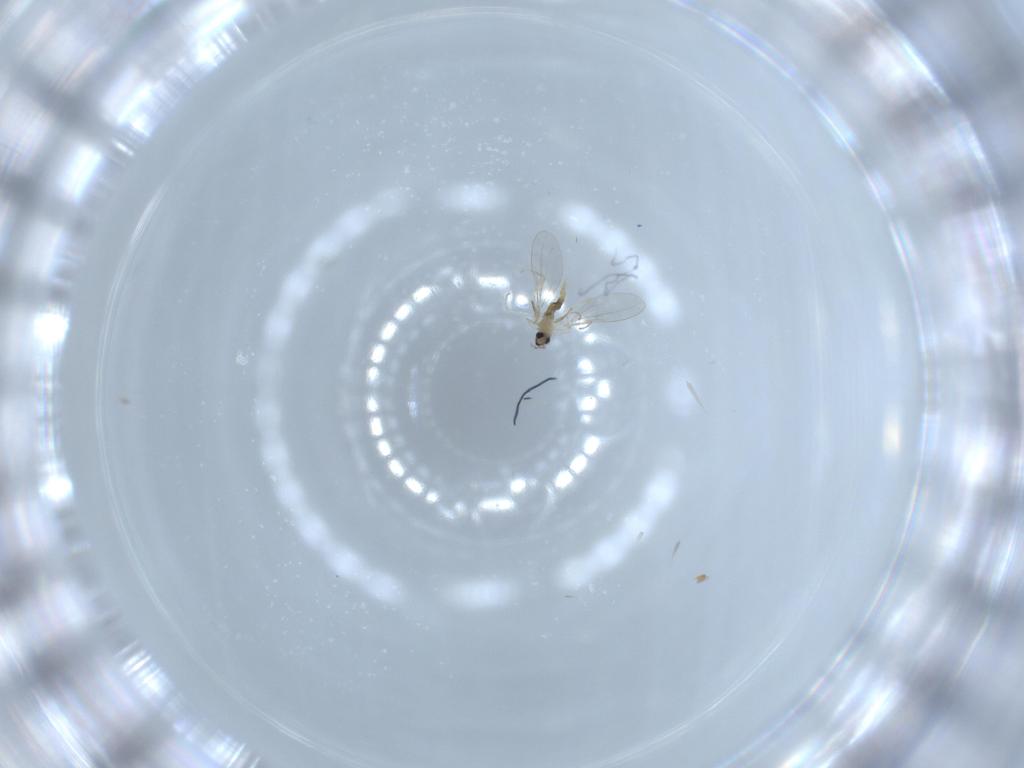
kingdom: Animalia
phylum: Arthropoda
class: Insecta
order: Diptera
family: Cecidomyiidae
